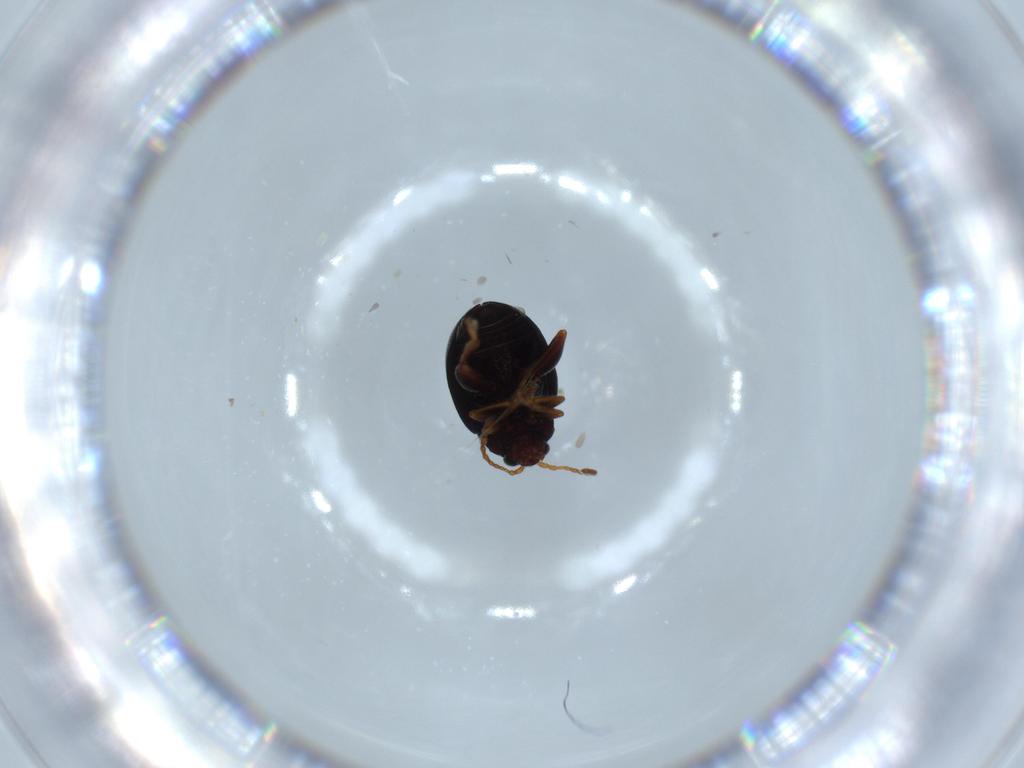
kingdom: Animalia
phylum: Arthropoda
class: Insecta
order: Coleoptera
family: Chrysomelidae
